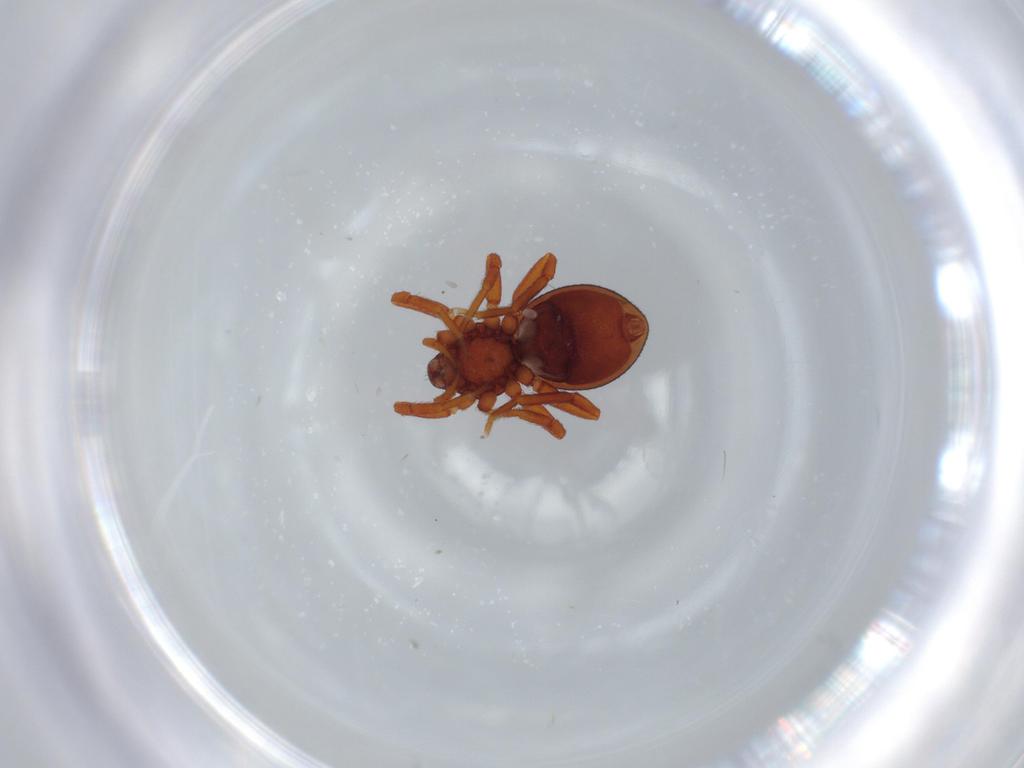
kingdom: Animalia
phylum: Arthropoda
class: Arachnida
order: Araneae
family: Oonopidae
